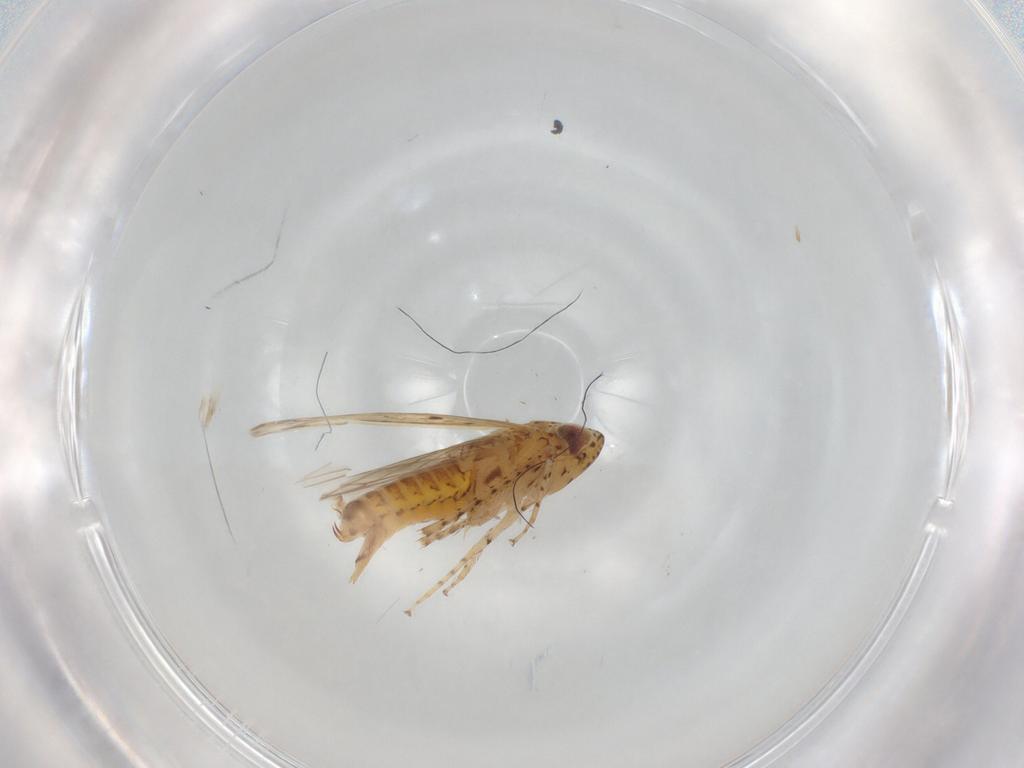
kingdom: Animalia
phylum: Arthropoda
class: Insecta
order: Hemiptera
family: Cicadellidae
